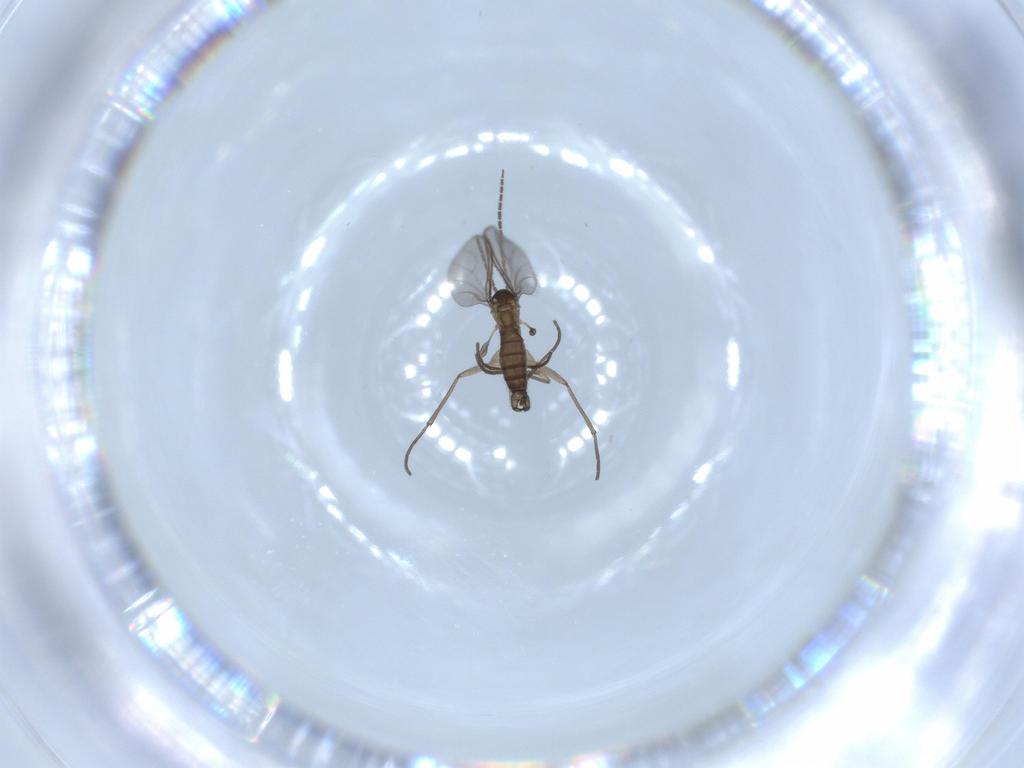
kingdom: Animalia
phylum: Arthropoda
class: Insecta
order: Diptera
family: Sciaridae
